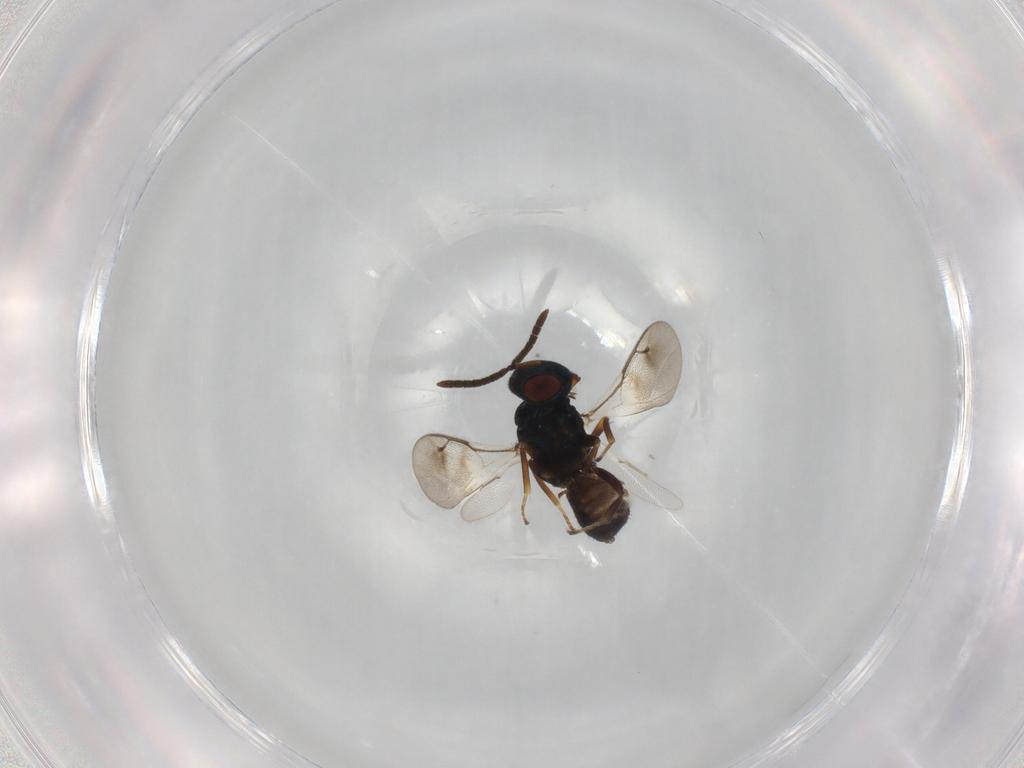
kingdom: Animalia
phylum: Arthropoda
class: Insecta
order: Hymenoptera
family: Pteromalidae
